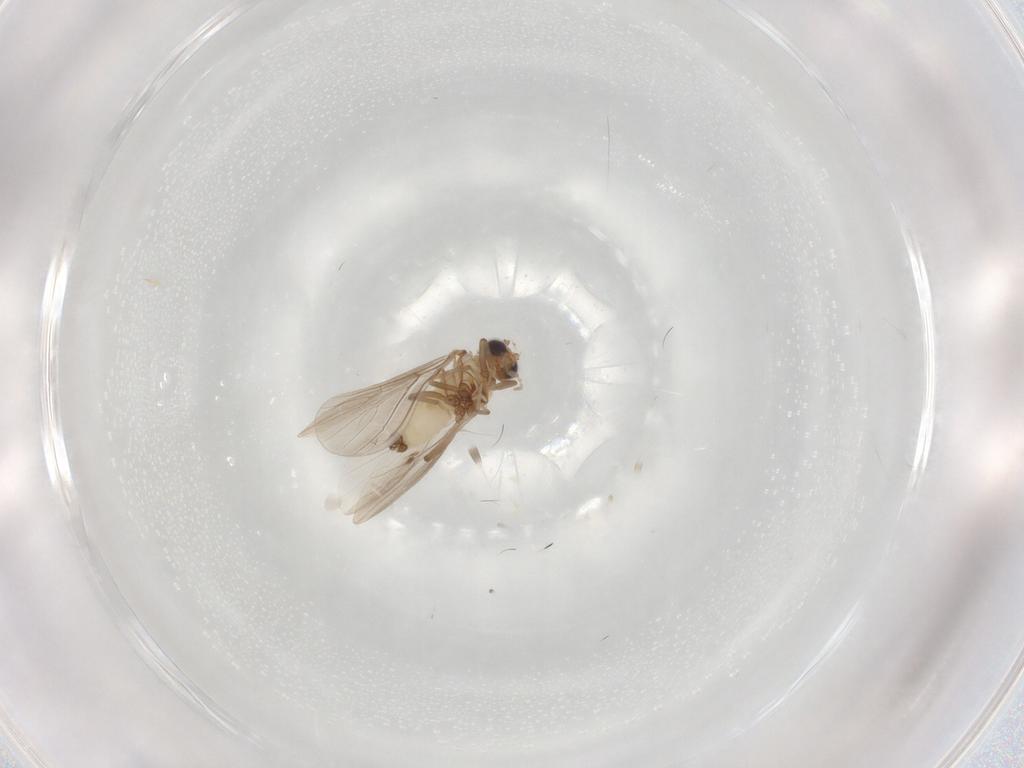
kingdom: Animalia
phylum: Arthropoda
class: Insecta
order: Neuroptera
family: Coniopterygidae
